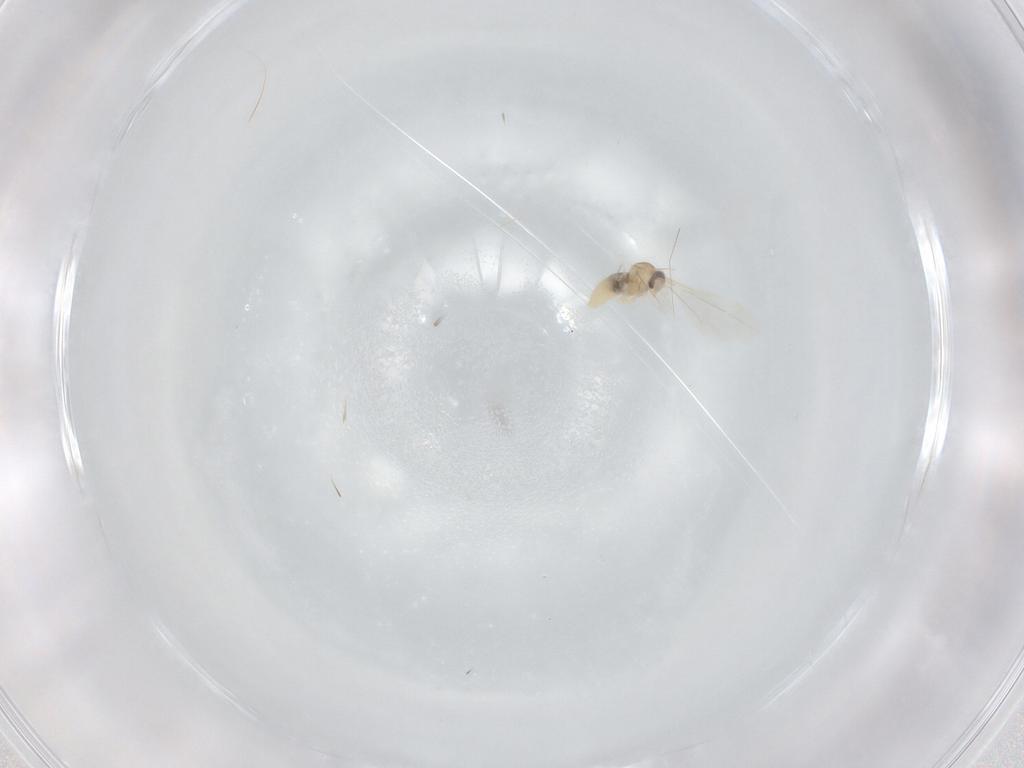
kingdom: Animalia
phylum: Arthropoda
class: Insecta
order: Diptera
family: Cecidomyiidae
